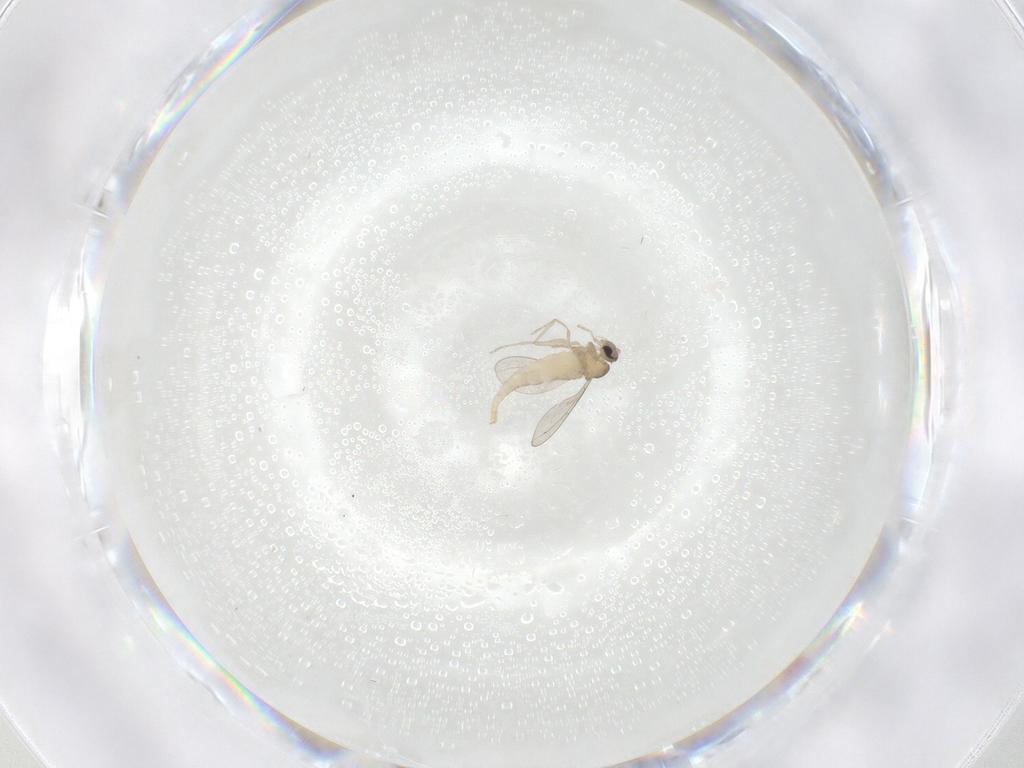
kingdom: Animalia
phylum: Arthropoda
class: Insecta
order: Diptera
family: Cecidomyiidae
